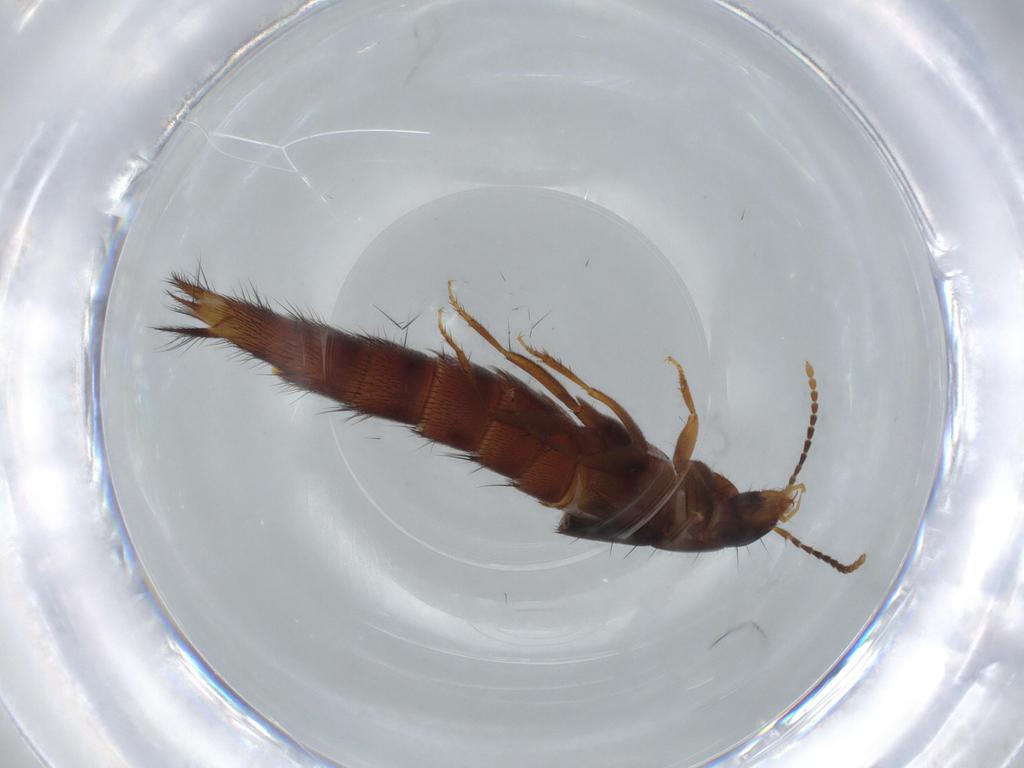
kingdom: Animalia
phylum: Arthropoda
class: Insecta
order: Coleoptera
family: Staphylinidae
